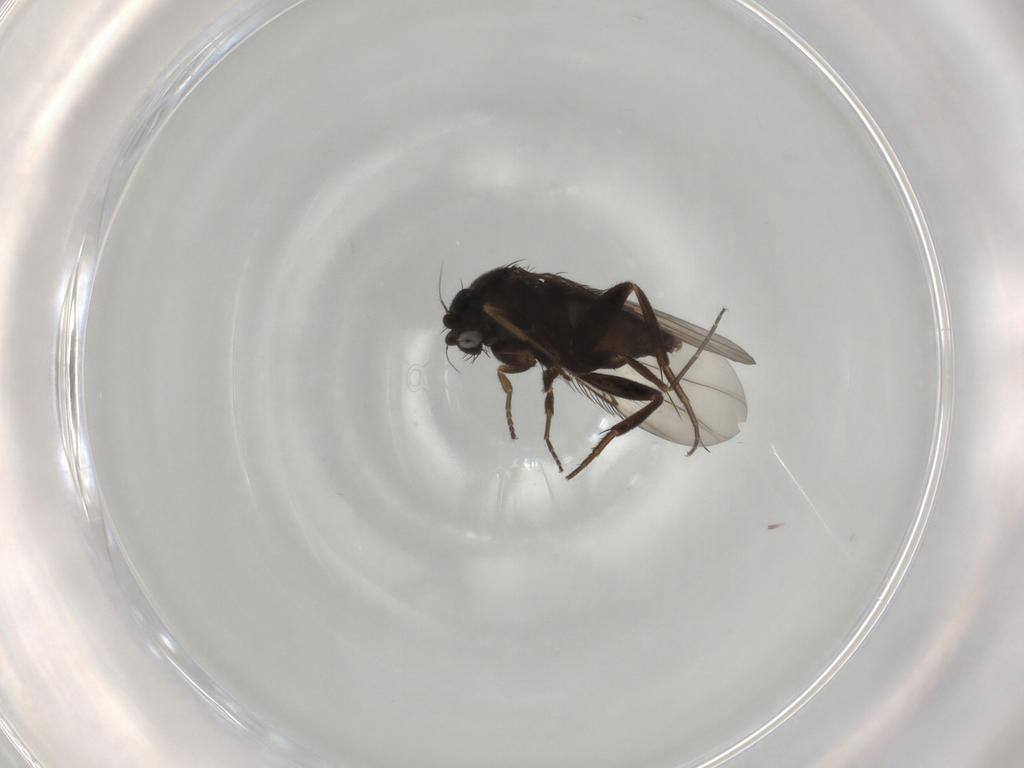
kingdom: Animalia
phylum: Arthropoda
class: Insecta
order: Diptera
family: Phoridae
